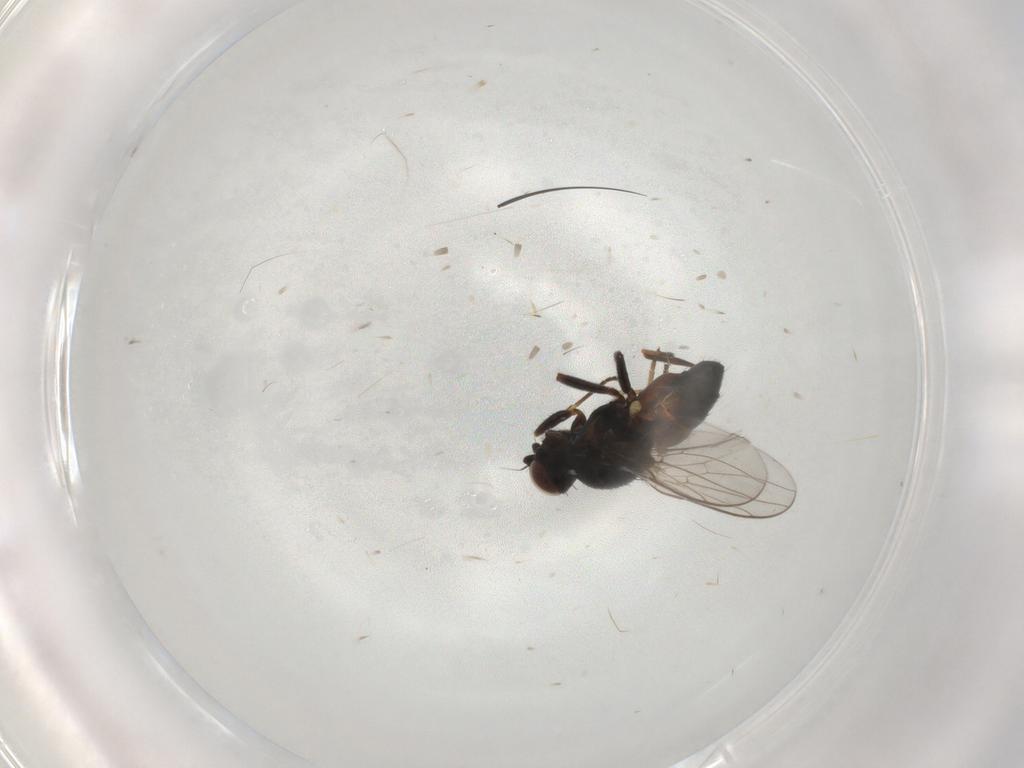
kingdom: Animalia
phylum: Arthropoda
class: Insecta
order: Diptera
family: Chloropidae
